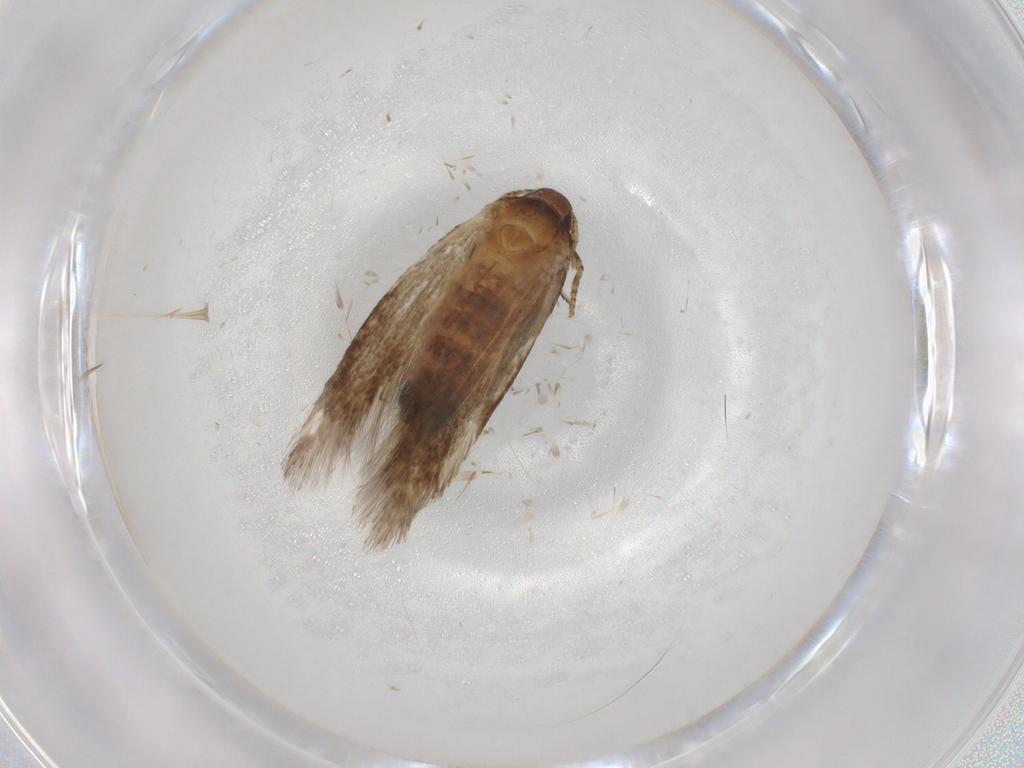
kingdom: Animalia
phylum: Arthropoda
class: Insecta
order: Lepidoptera
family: Cosmopterigidae
